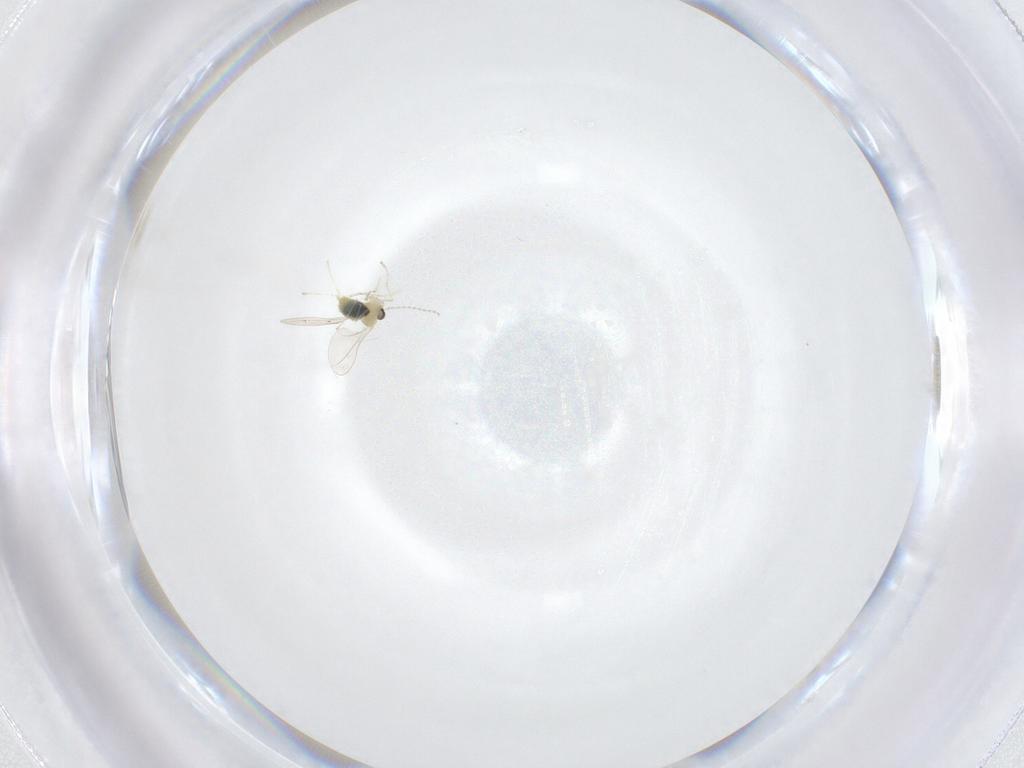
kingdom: Animalia
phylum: Arthropoda
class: Insecta
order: Diptera
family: Cecidomyiidae
